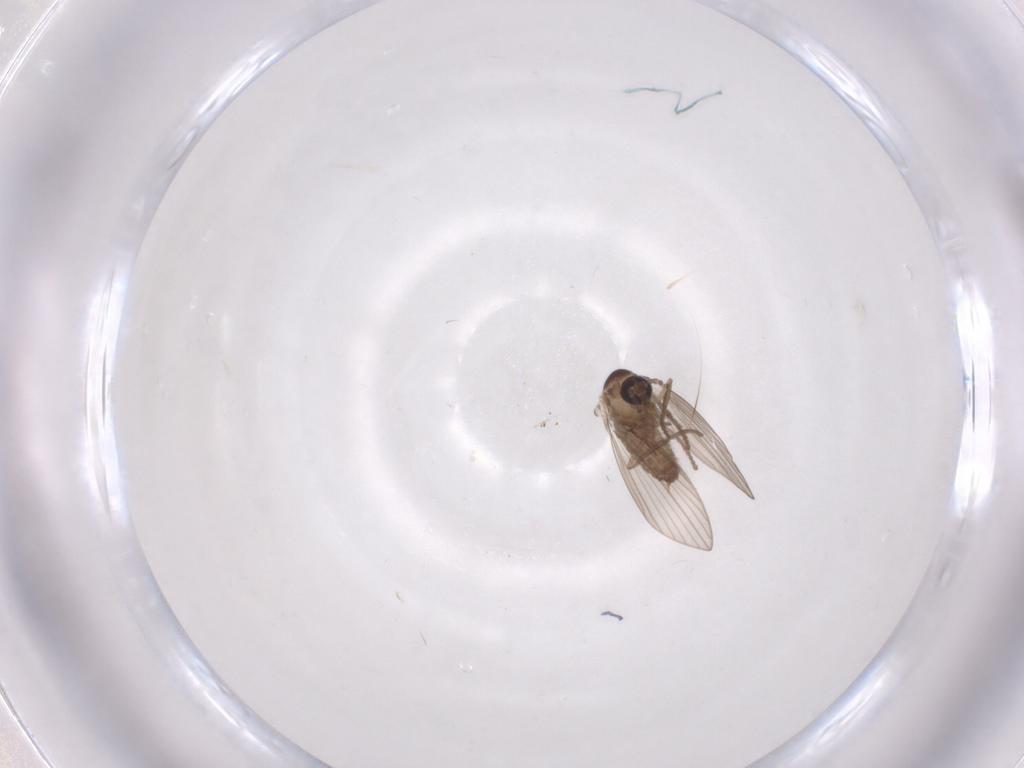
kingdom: Animalia
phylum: Arthropoda
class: Insecta
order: Diptera
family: Psychodidae
